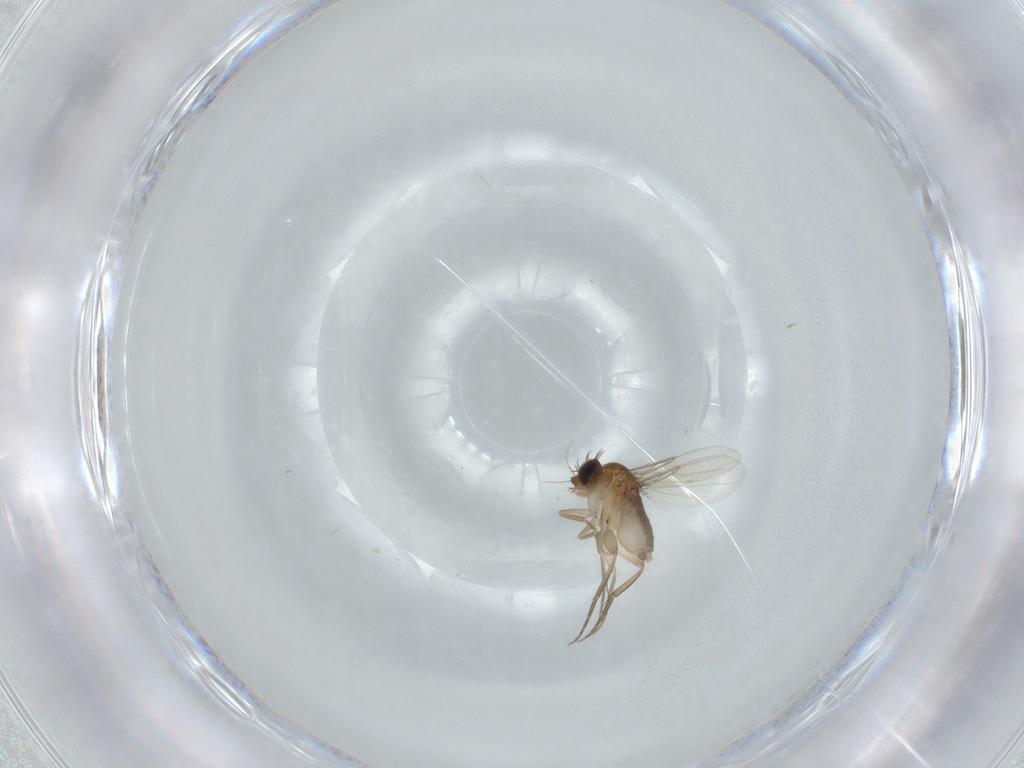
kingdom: Animalia
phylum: Arthropoda
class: Insecta
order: Diptera
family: Phoridae
